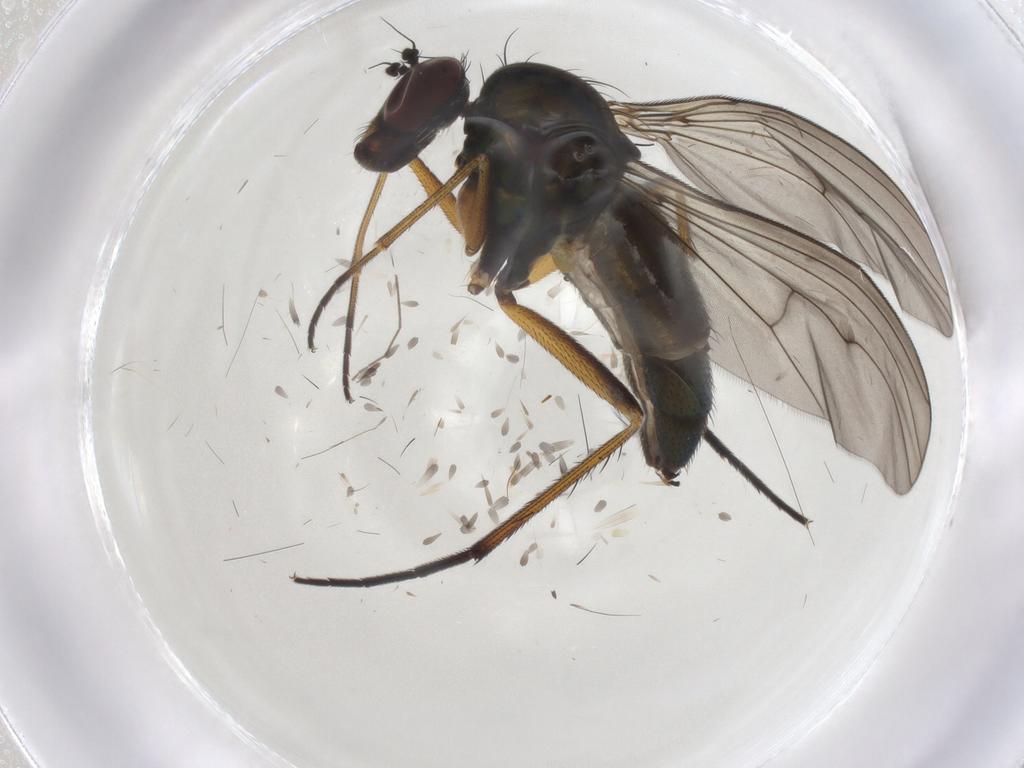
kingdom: Animalia
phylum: Arthropoda
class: Insecta
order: Diptera
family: Dolichopodidae
